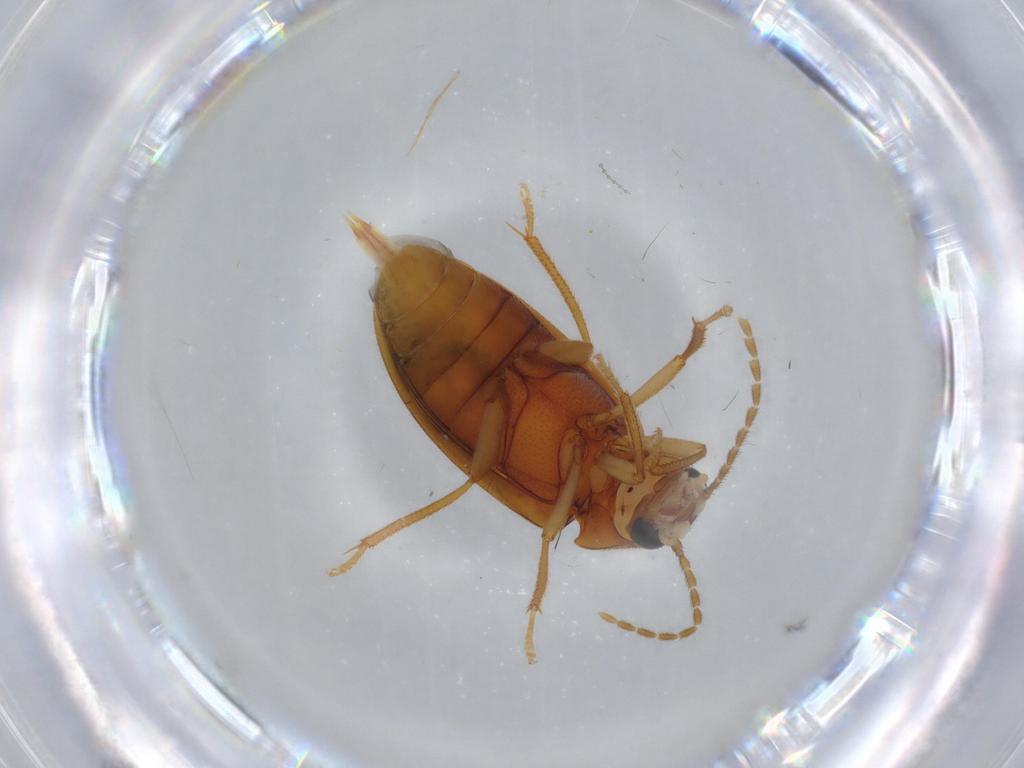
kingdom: Animalia
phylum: Arthropoda
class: Insecta
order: Coleoptera
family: Ptilodactylidae
